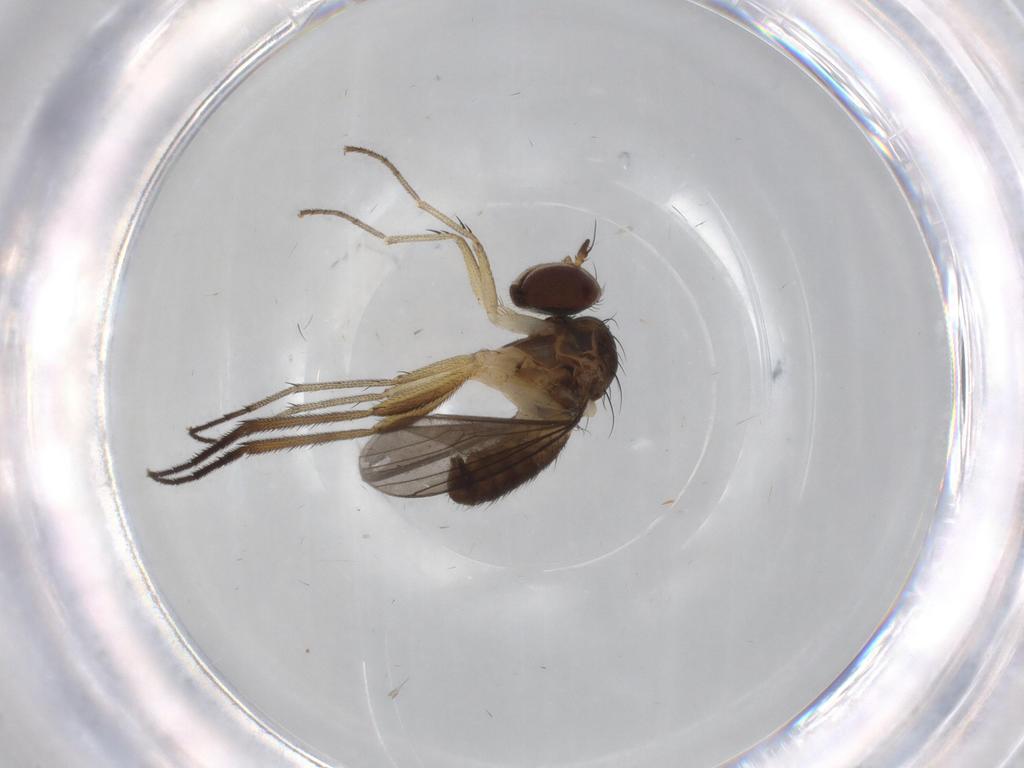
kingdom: Animalia
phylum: Arthropoda
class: Insecta
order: Diptera
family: Dolichopodidae
